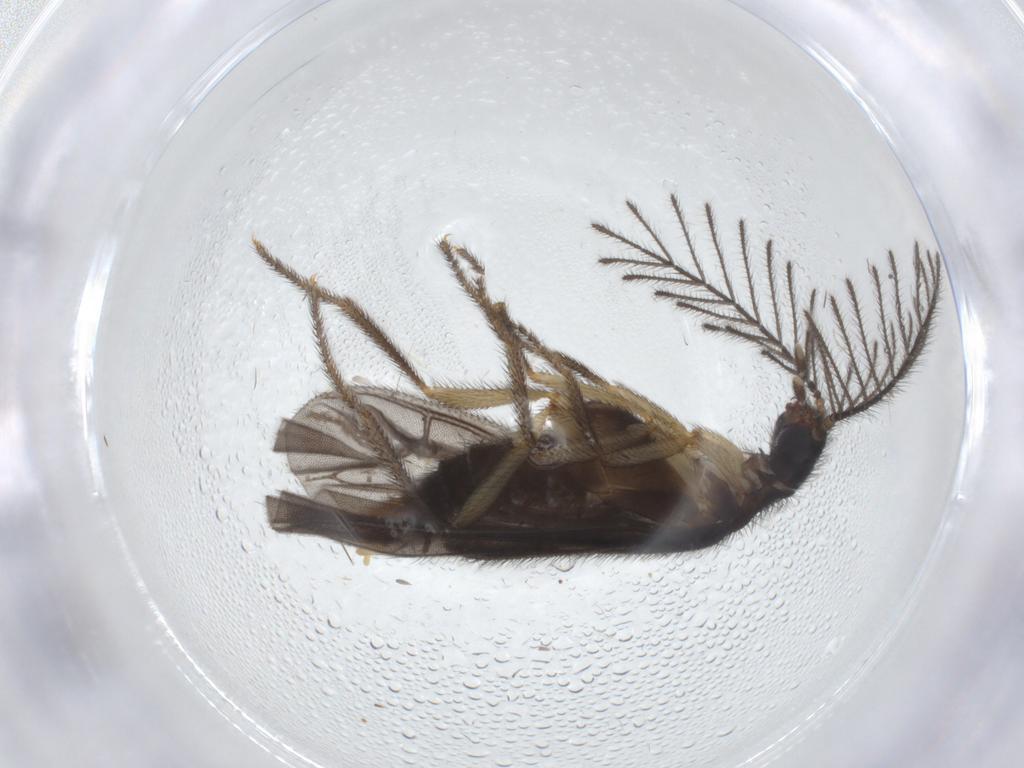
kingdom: Animalia
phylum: Arthropoda
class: Insecta
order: Coleoptera
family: Phengodidae
